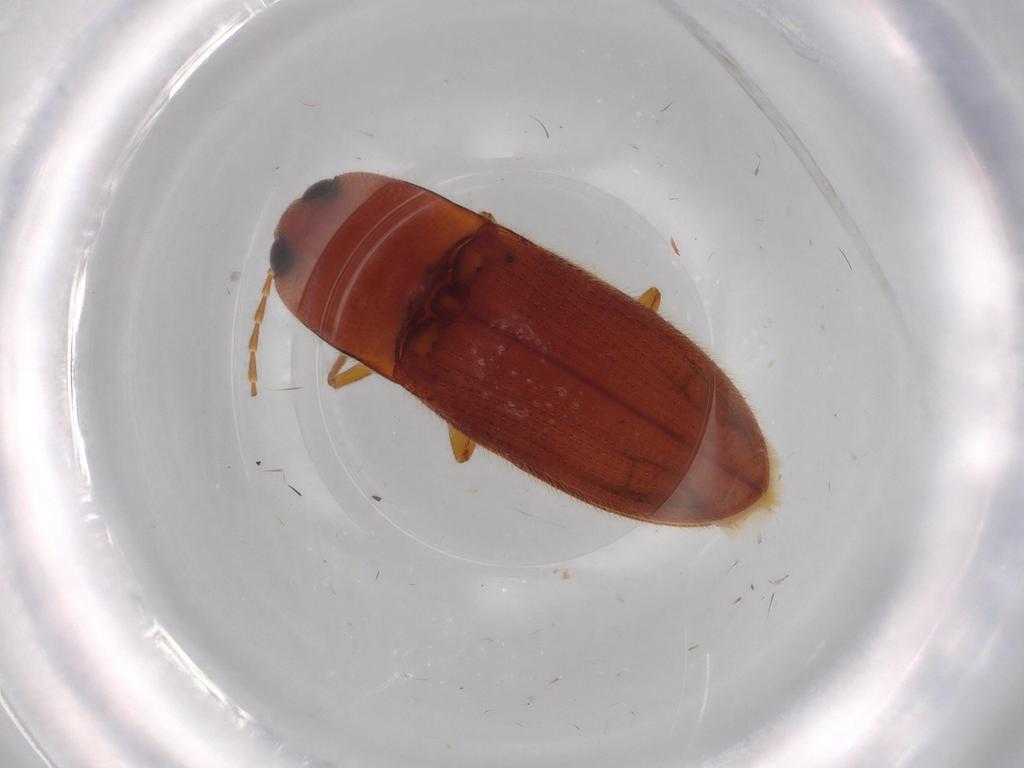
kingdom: Animalia
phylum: Arthropoda
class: Insecta
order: Coleoptera
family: Elateridae
